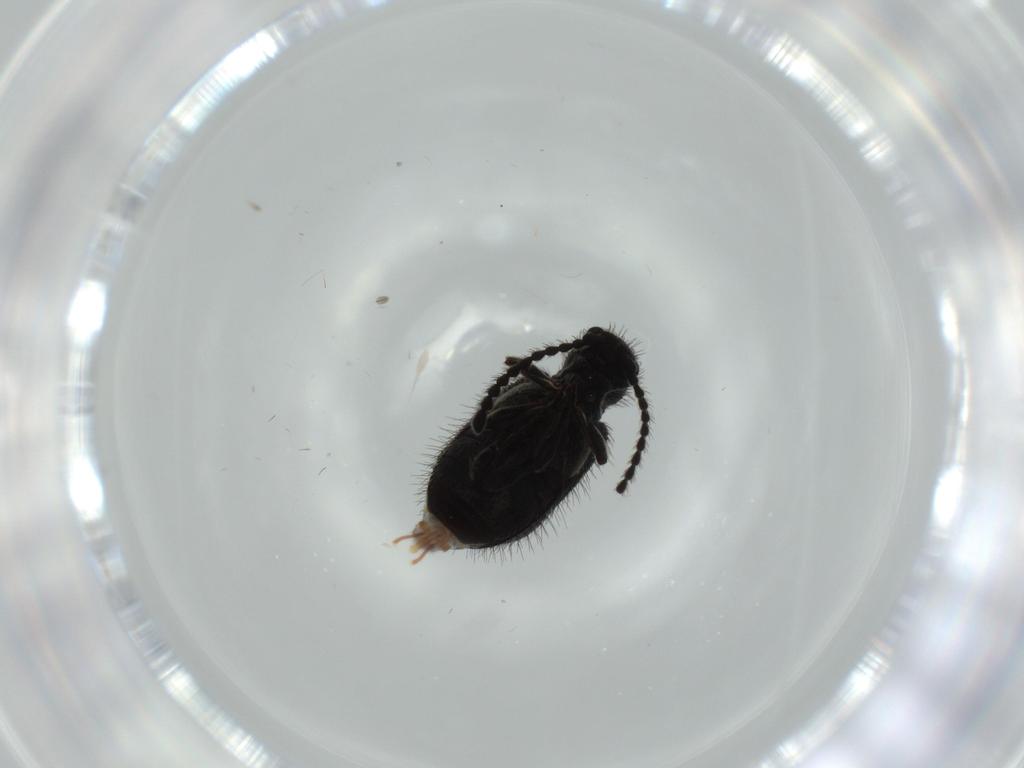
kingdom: Animalia
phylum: Arthropoda
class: Insecta
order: Coleoptera
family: Ptinidae
